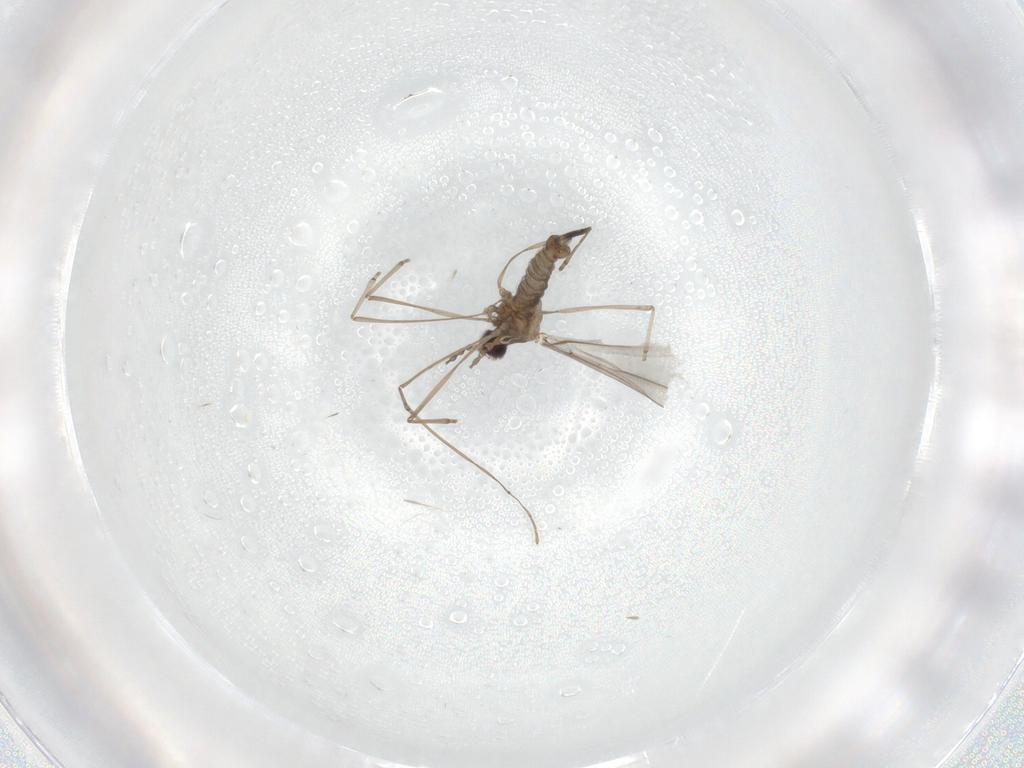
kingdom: Animalia
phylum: Arthropoda
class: Insecta
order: Diptera
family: Cecidomyiidae
